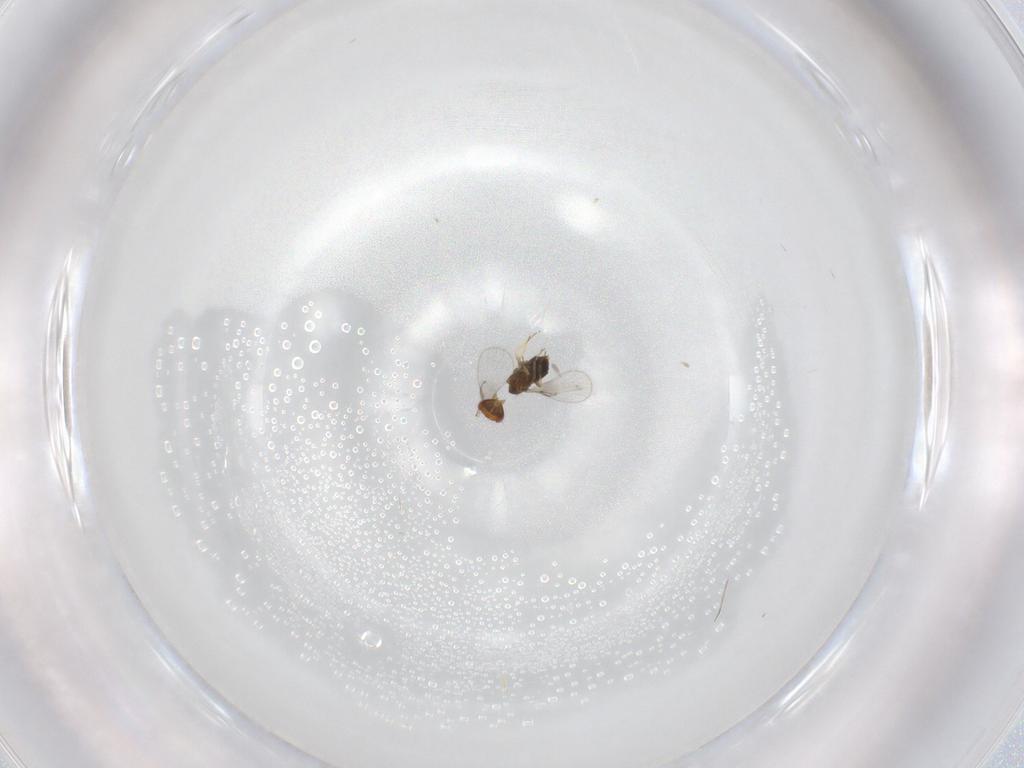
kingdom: Animalia
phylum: Arthropoda
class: Insecta
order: Hymenoptera
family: Trichogrammatidae
